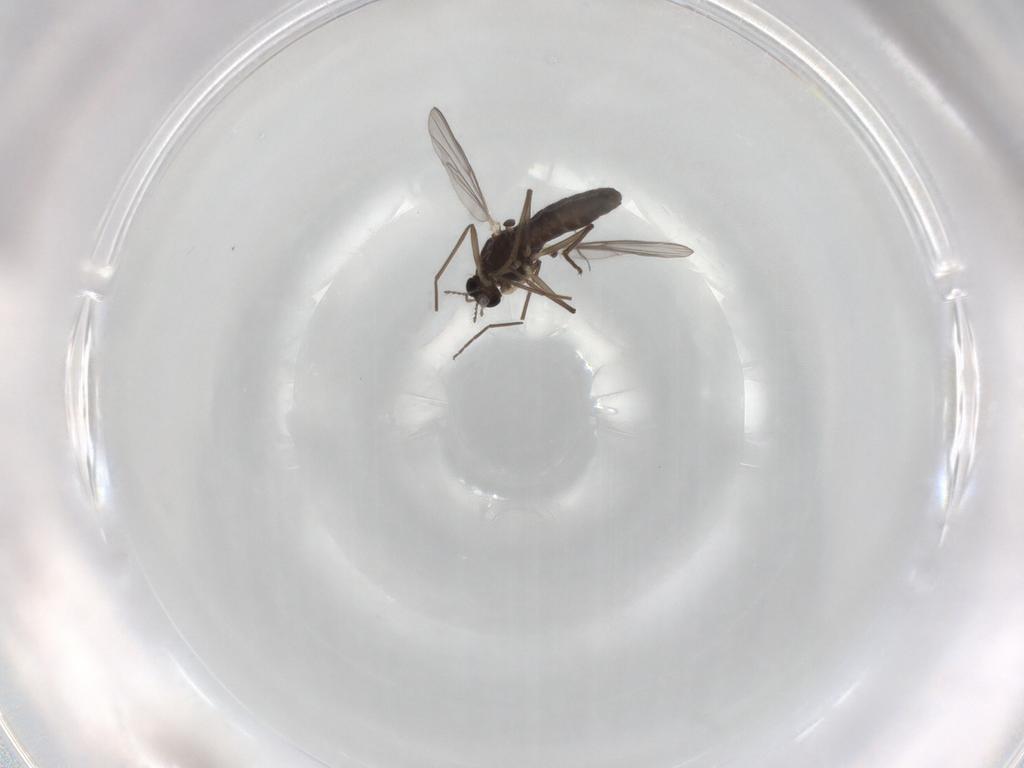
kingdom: Animalia
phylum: Arthropoda
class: Insecta
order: Diptera
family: Chironomidae
